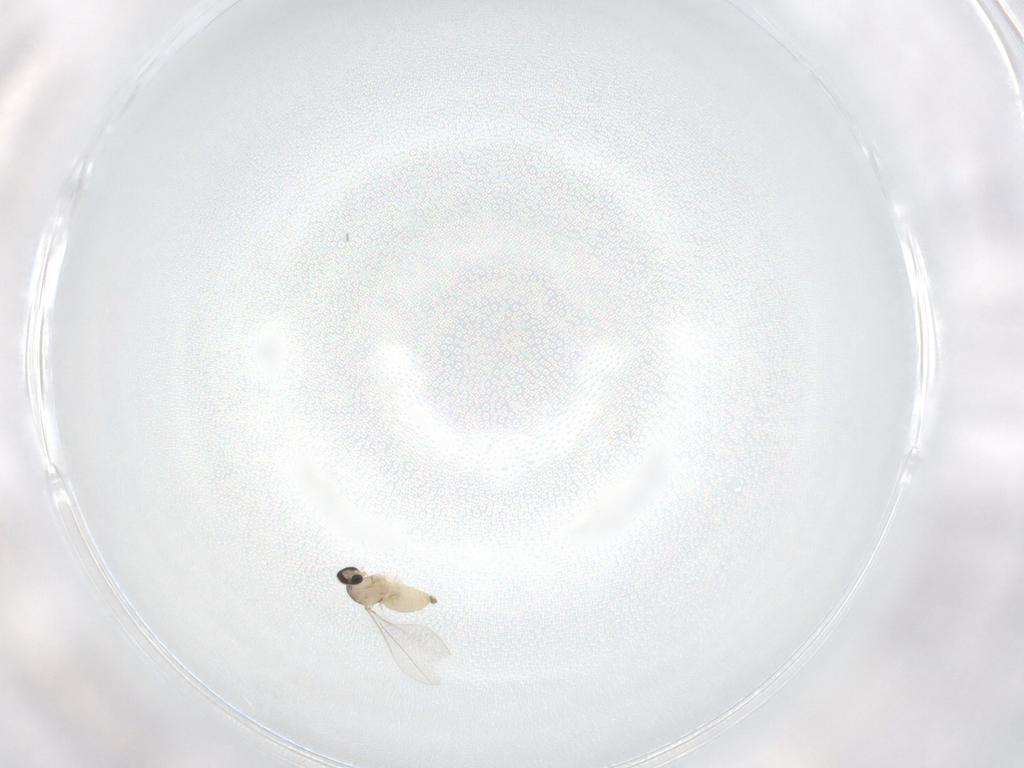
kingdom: Animalia
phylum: Arthropoda
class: Insecta
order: Diptera
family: Cecidomyiidae
